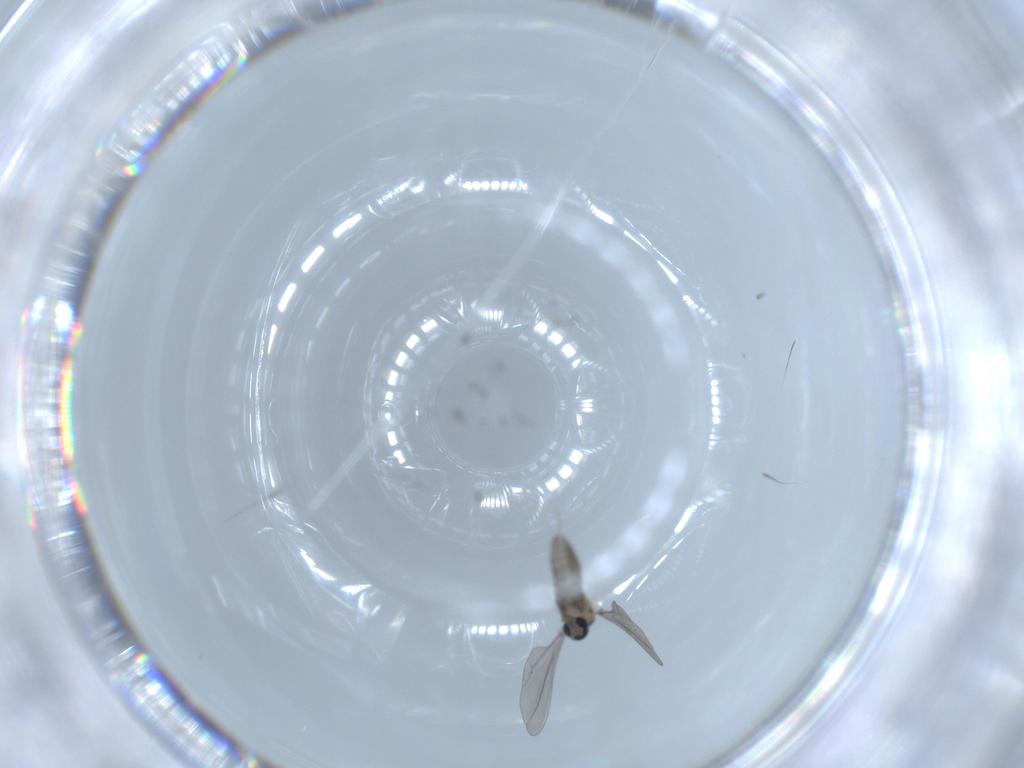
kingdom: Animalia
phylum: Arthropoda
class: Insecta
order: Diptera
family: Cecidomyiidae
